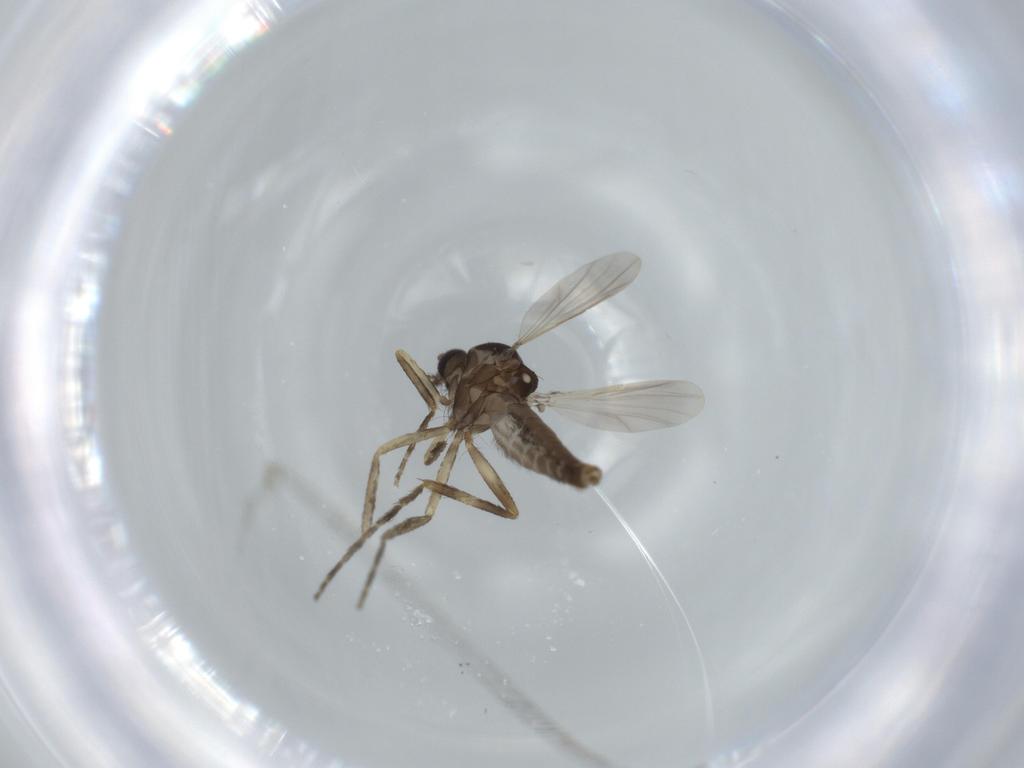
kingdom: Animalia
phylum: Arthropoda
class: Insecta
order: Diptera
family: Ceratopogonidae
